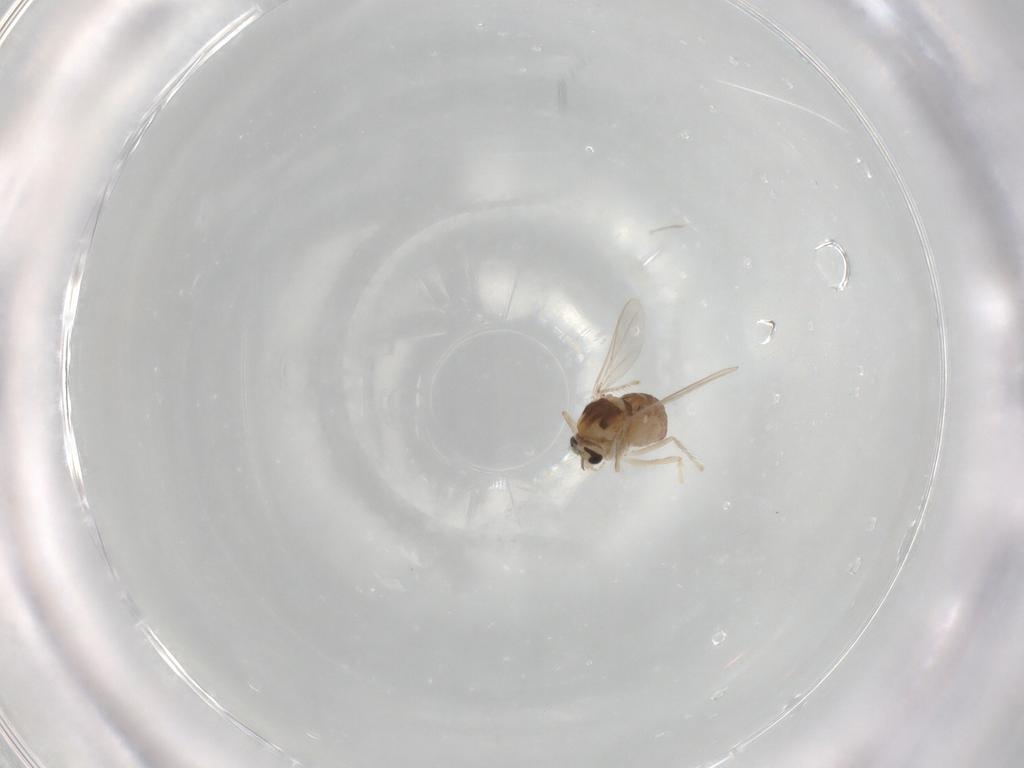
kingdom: Animalia
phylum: Arthropoda
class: Insecta
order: Diptera
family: Chironomidae
